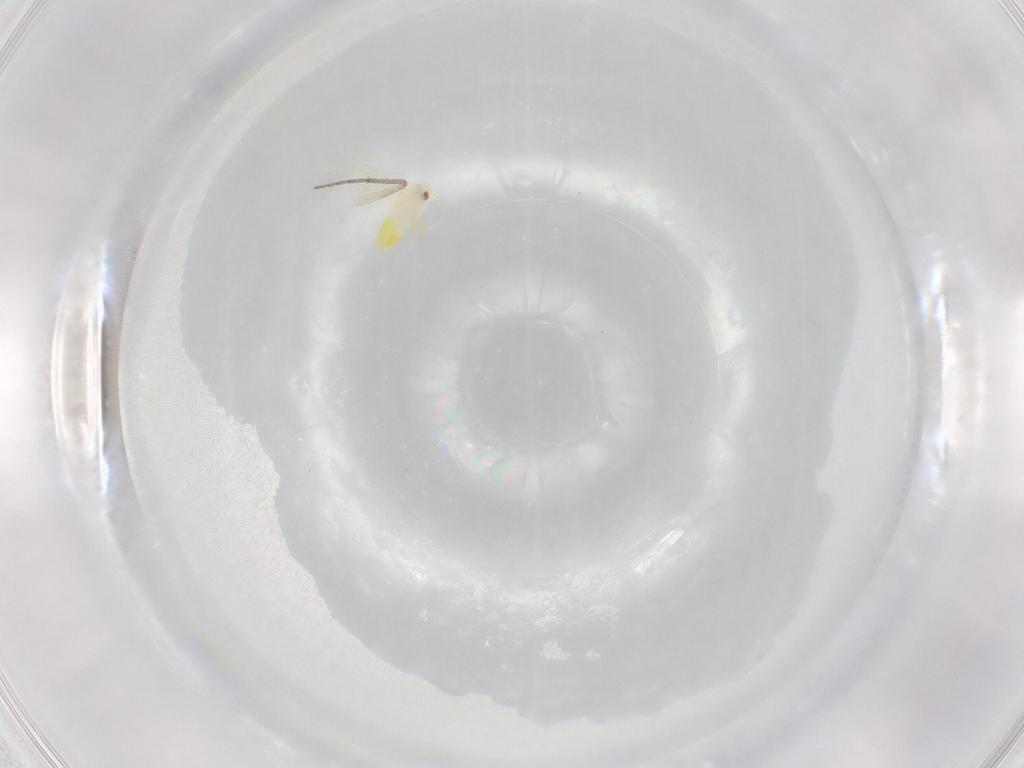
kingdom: Animalia
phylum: Arthropoda
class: Insecta
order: Hemiptera
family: Aleyrodidae
